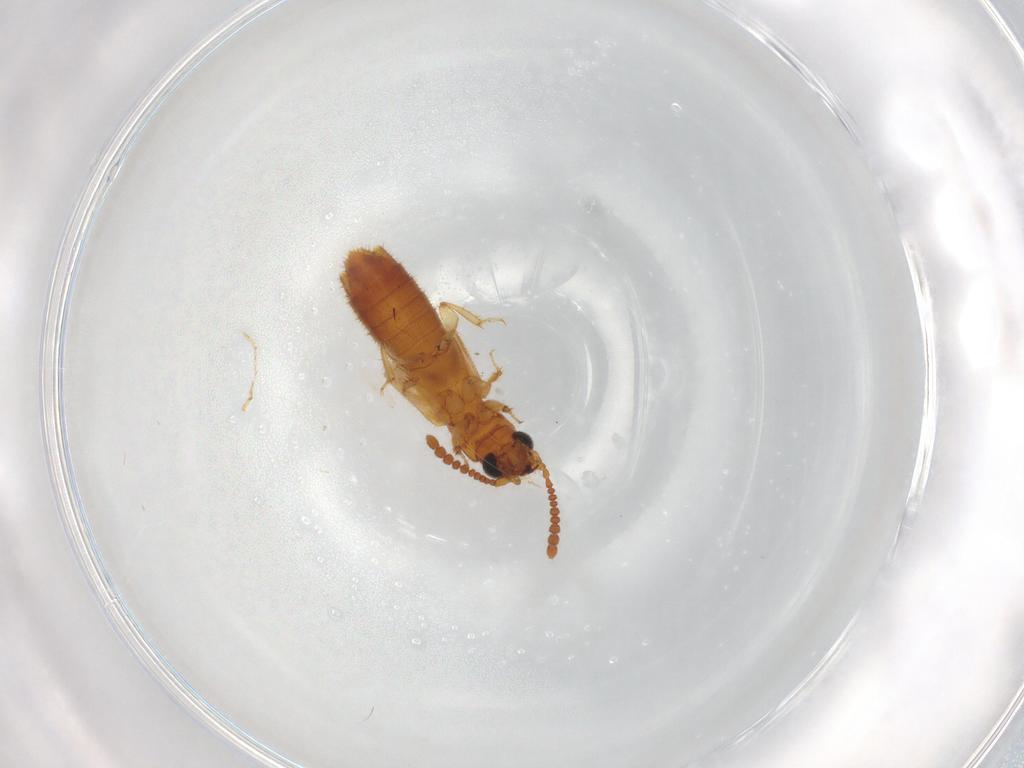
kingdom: Animalia
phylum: Arthropoda
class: Insecta
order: Coleoptera
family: Staphylinidae
